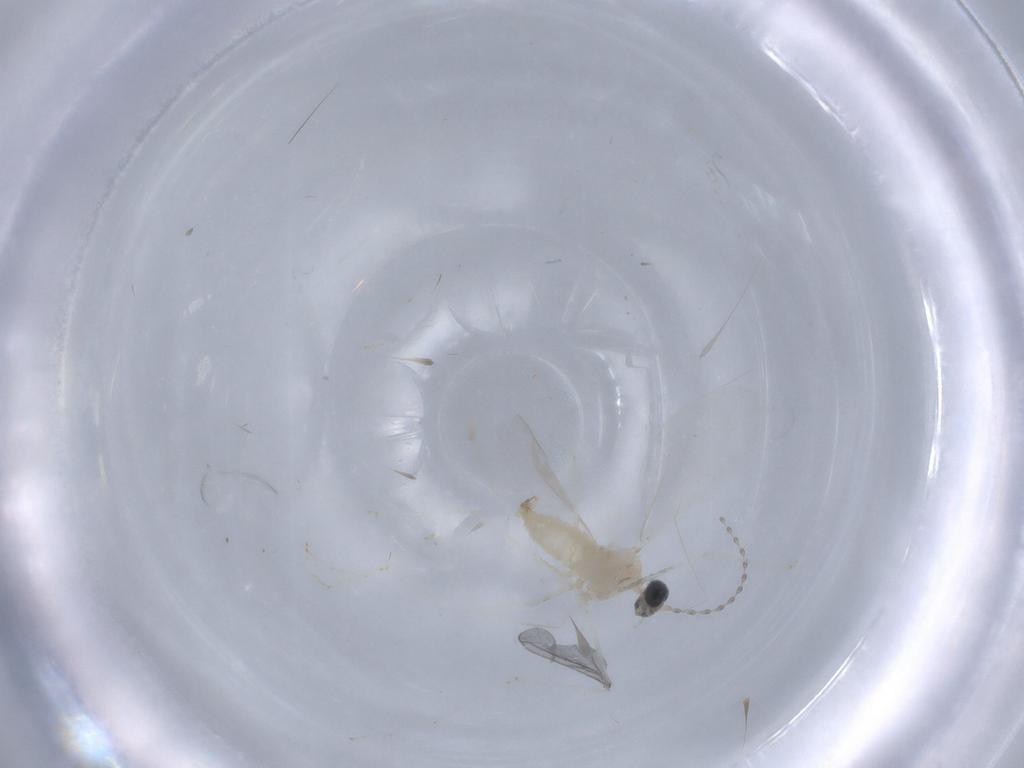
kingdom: Animalia
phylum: Arthropoda
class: Insecta
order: Diptera
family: Cecidomyiidae
